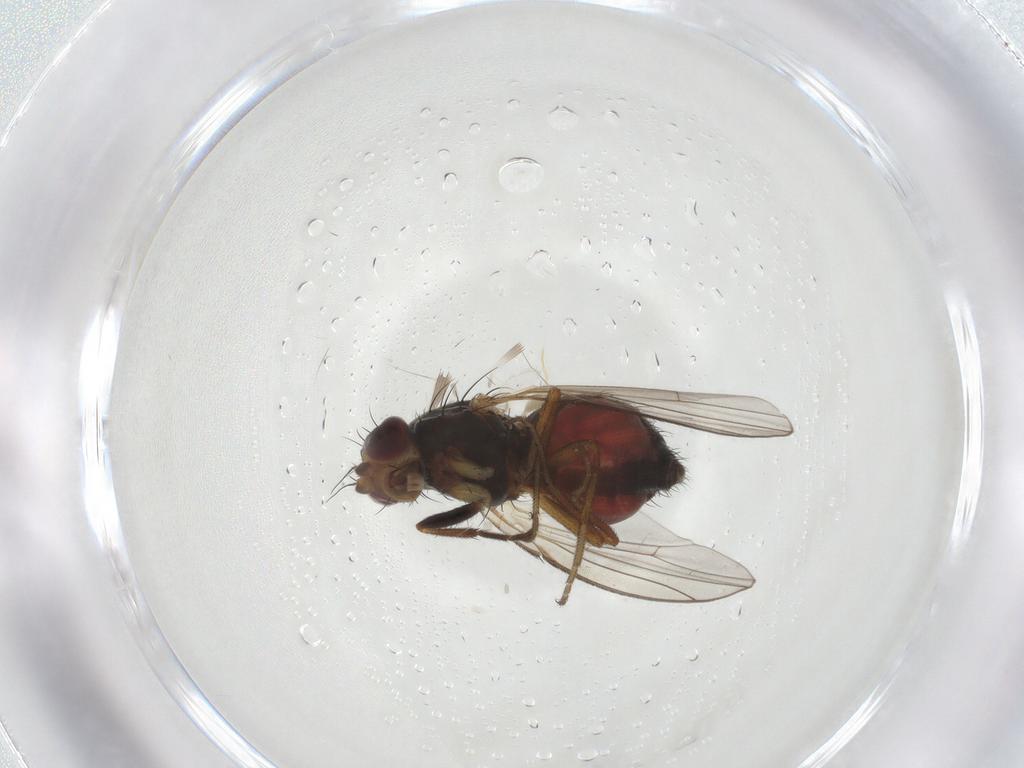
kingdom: Animalia
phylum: Arthropoda
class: Insecta
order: Diptera
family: Heleomyzidae
